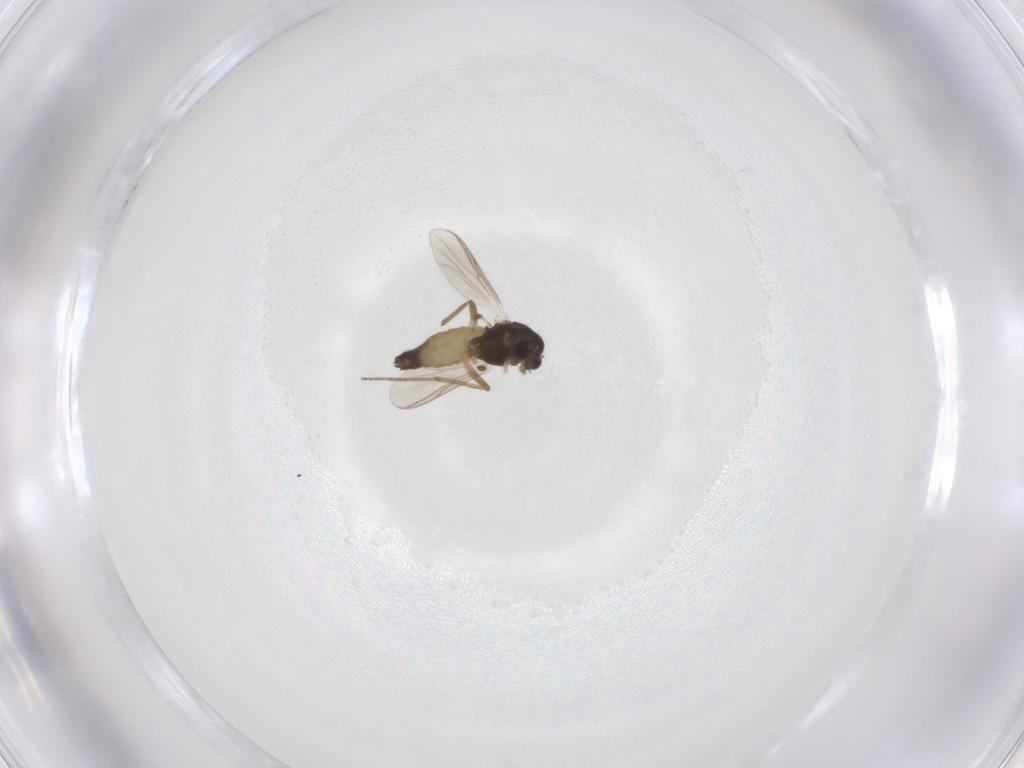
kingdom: Animalia
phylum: Arthropoda
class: Insecta
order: Diptera
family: Chironomidae
